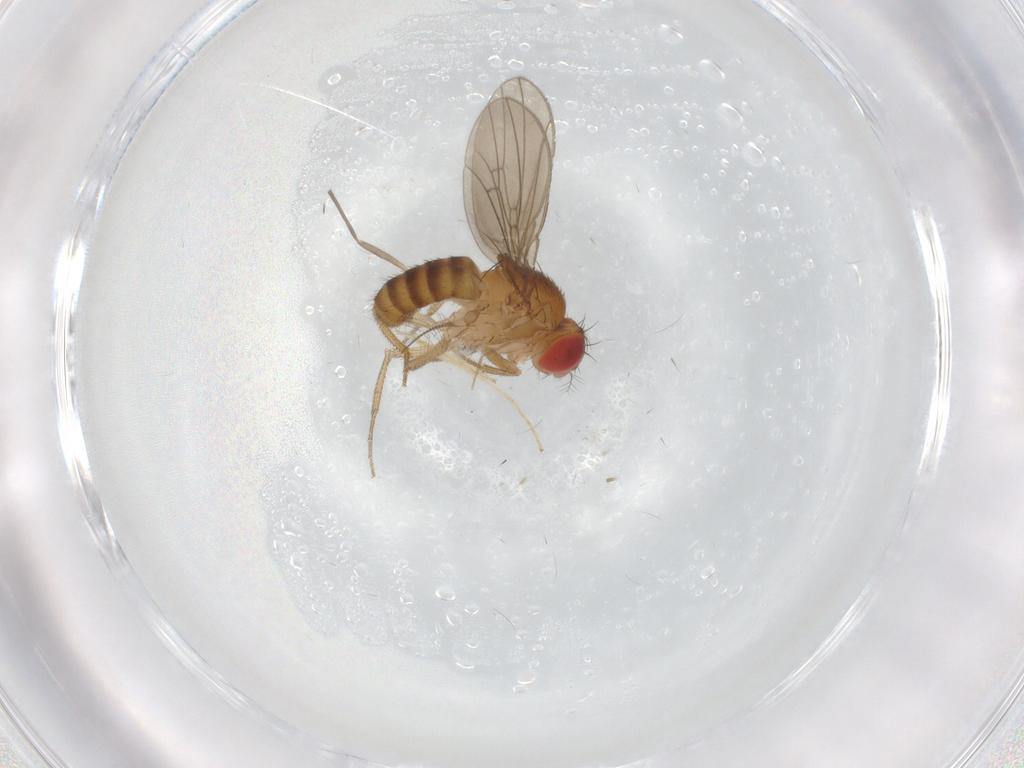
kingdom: Animalia
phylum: Arthropoda
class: Insecta
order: Diptera
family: Drosophilidae
